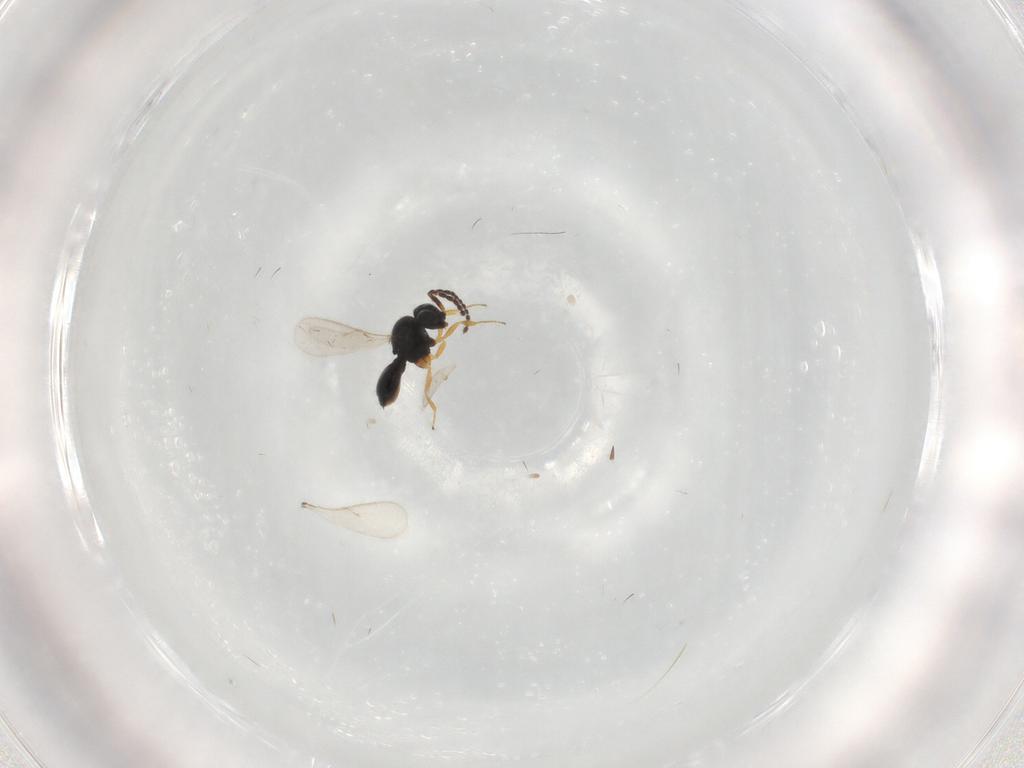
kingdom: Animalia
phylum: Arthropoda
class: Insecta
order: Hymenoptera
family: Scelionidae
